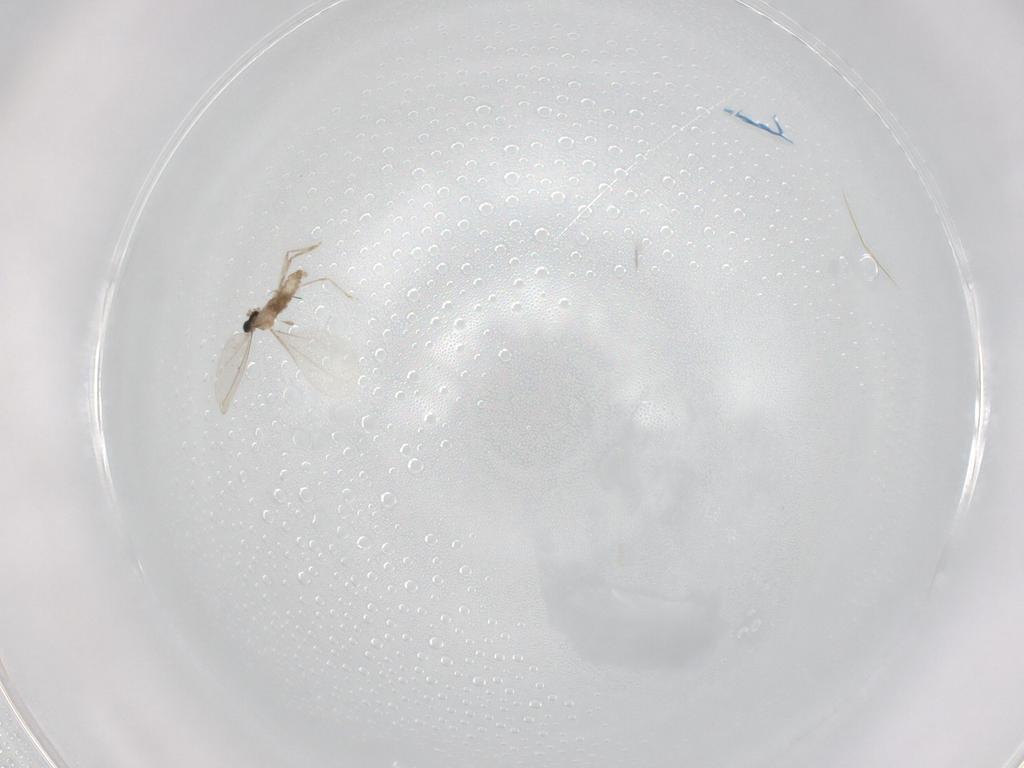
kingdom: Animalia
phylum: Arthropoda
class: Insecta
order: Diptera
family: Cecidomyiidae
